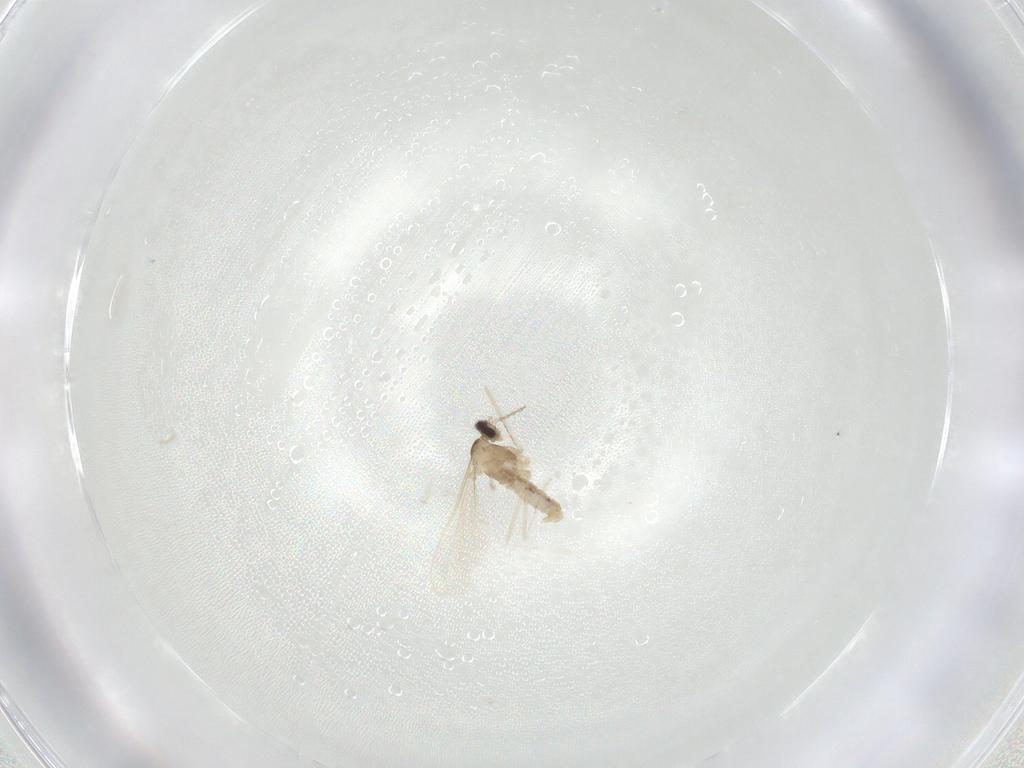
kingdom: Animalia
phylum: Arthropoda
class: Insecta
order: Diptera
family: Cecidomyiidae
